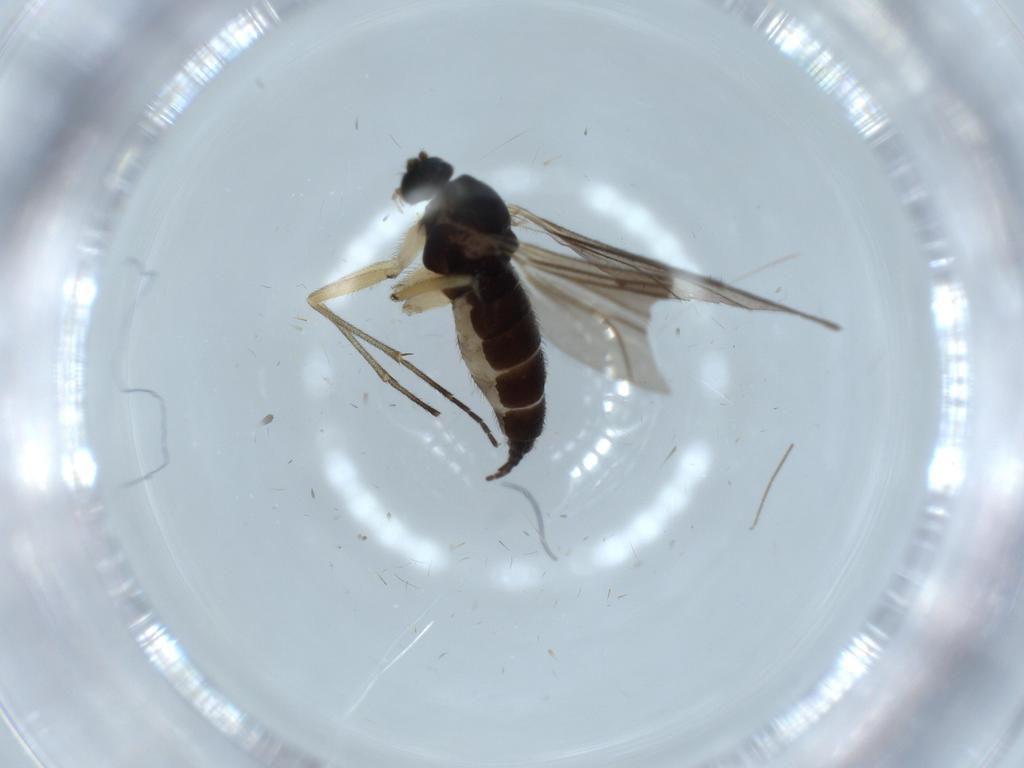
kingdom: Animalia
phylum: Arthropoda
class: Insecta
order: Diptera
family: Sciaridae
